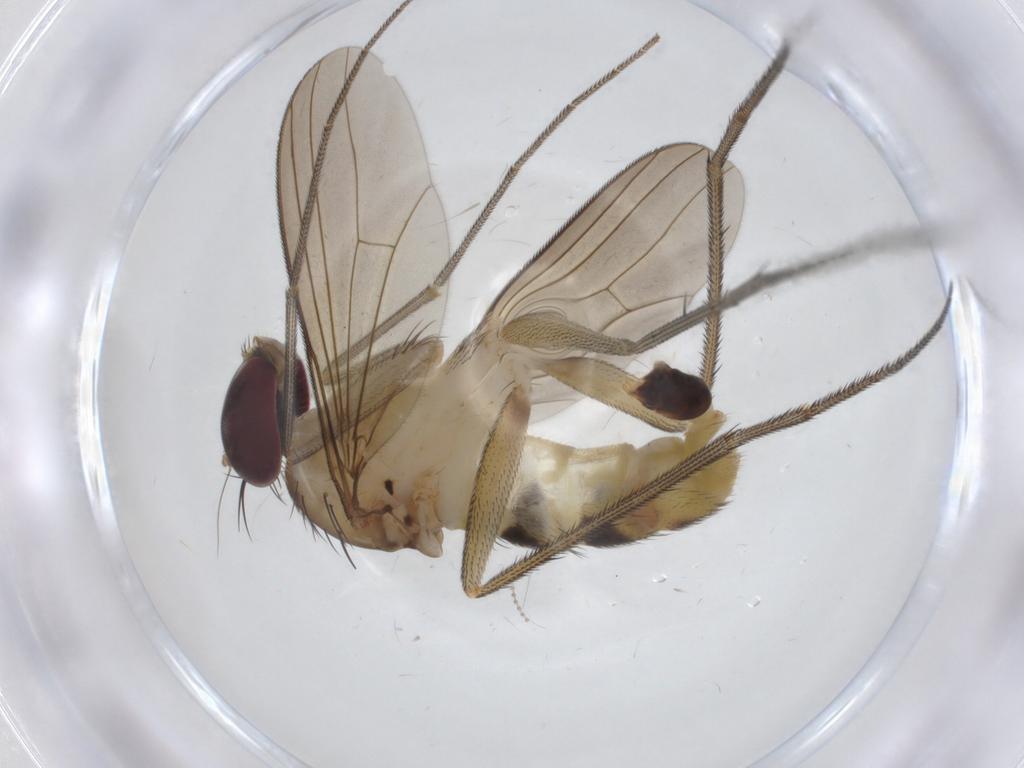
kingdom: Animalia
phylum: Arthropoda
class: Insecta
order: Diptera
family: Dolichopodidae
